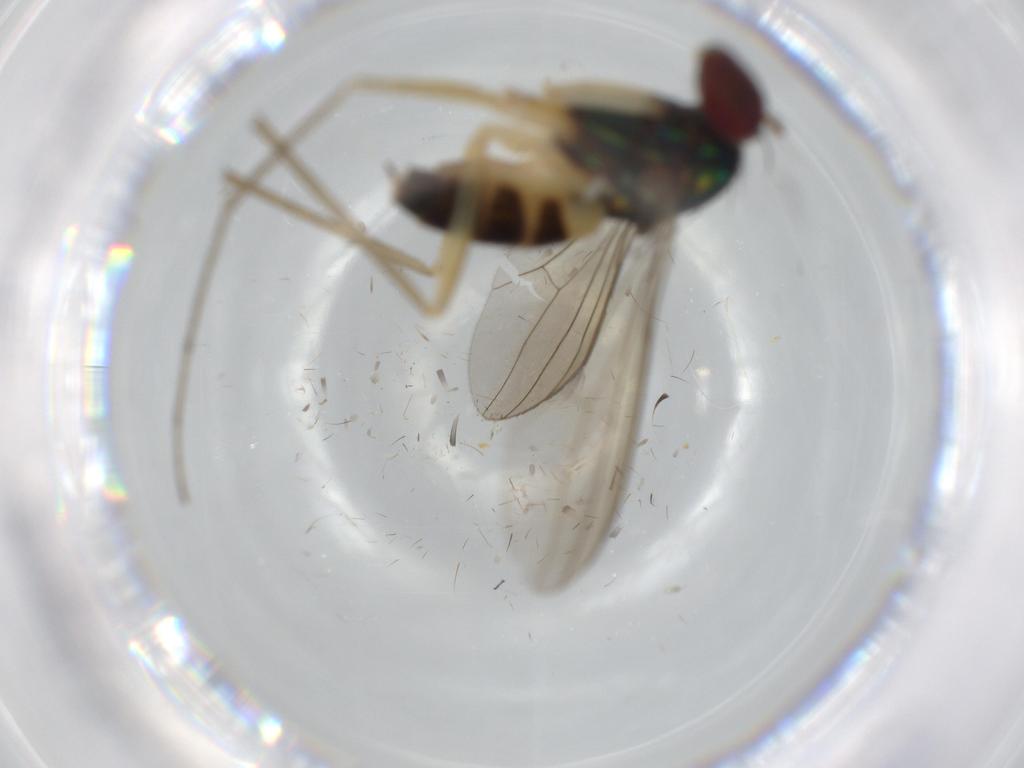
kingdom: Animalia
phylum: Arthropoda
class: Insecta
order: Diptera
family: Dolichopodidae
